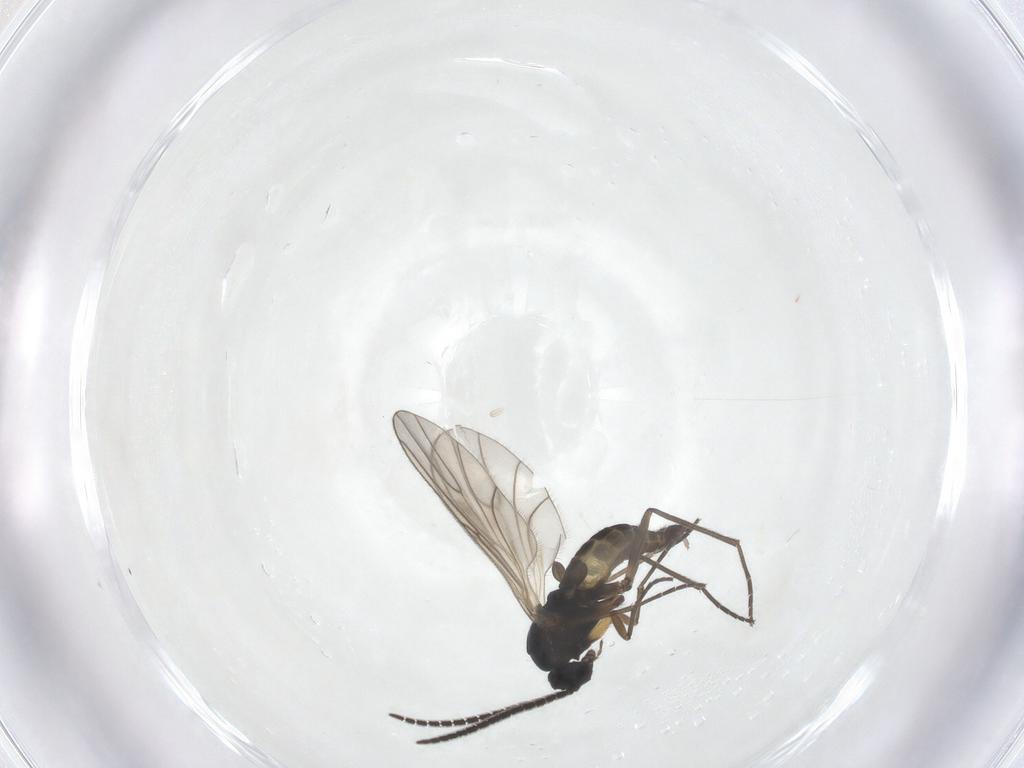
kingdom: Animalia
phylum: Arthropoda
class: Insecta
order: Diptera
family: Sciaridae
